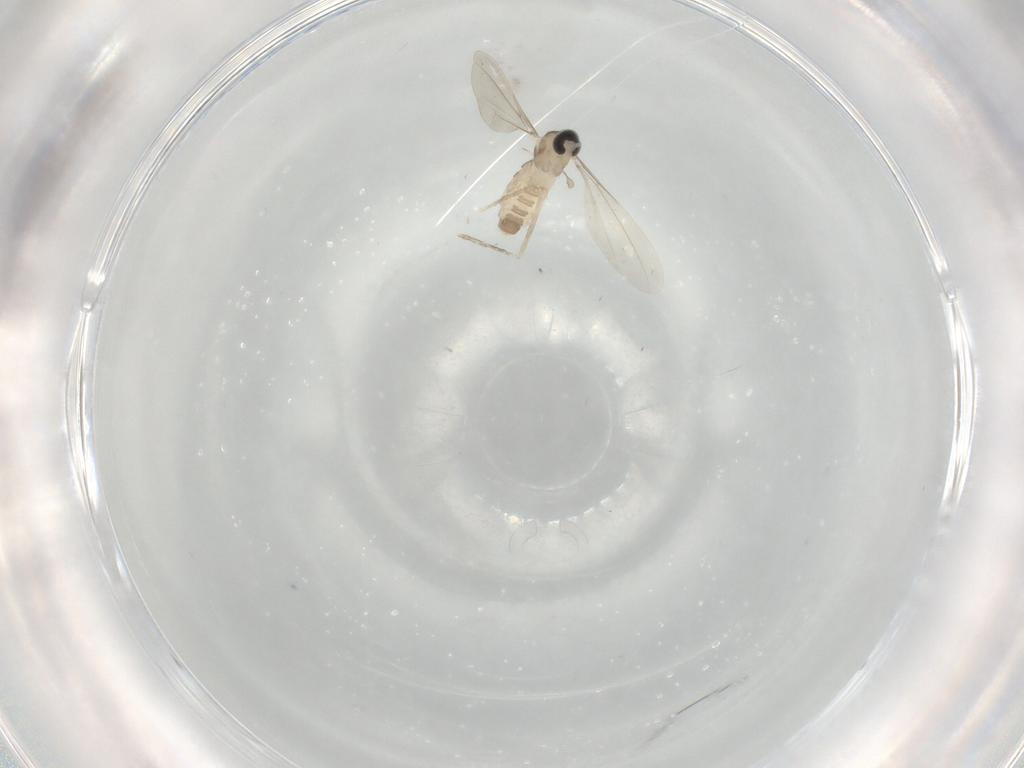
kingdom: Animalia
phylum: Arthropoda
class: Insecta
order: Diptera
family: Cecidomyiidae
